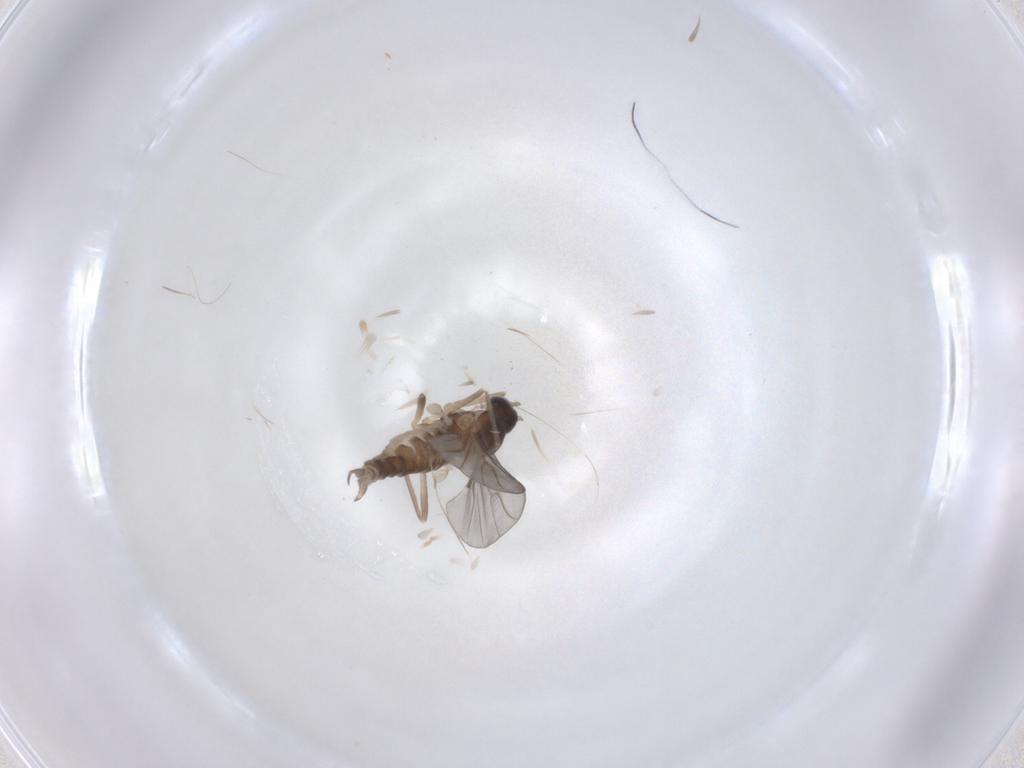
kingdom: Animalia
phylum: Arthropoda
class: Insecta
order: Diptera
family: Cecidomyiidae
